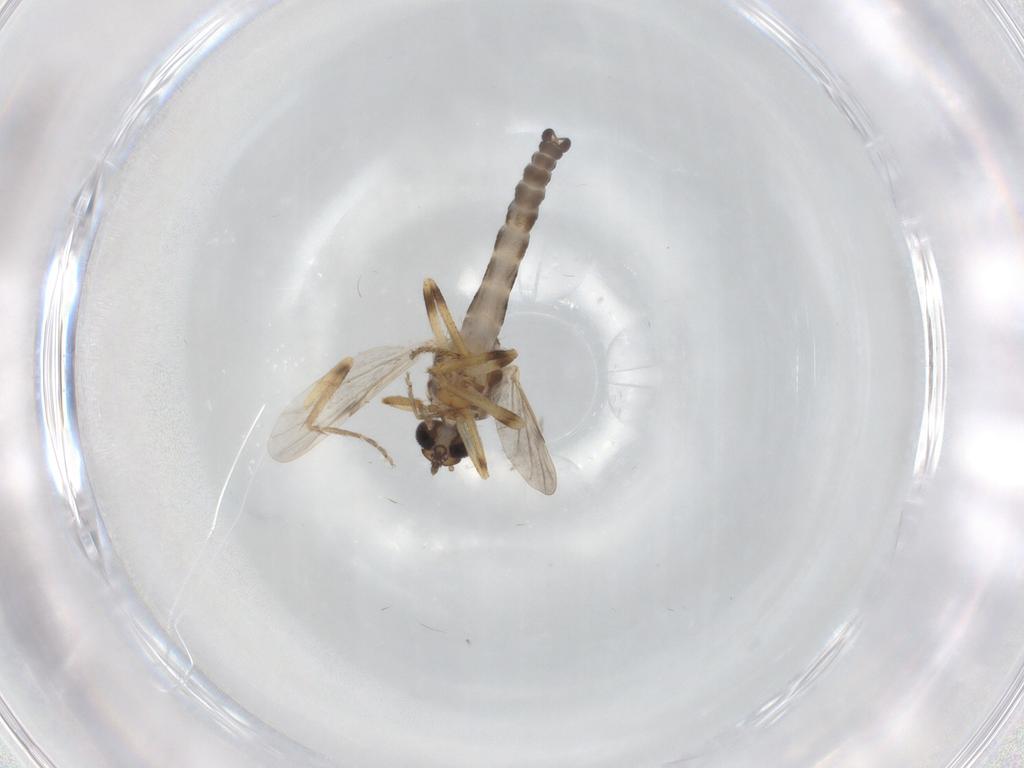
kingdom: Animalia
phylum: Arthropoda
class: Insecta
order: Diptera
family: Ceratopogonidae
